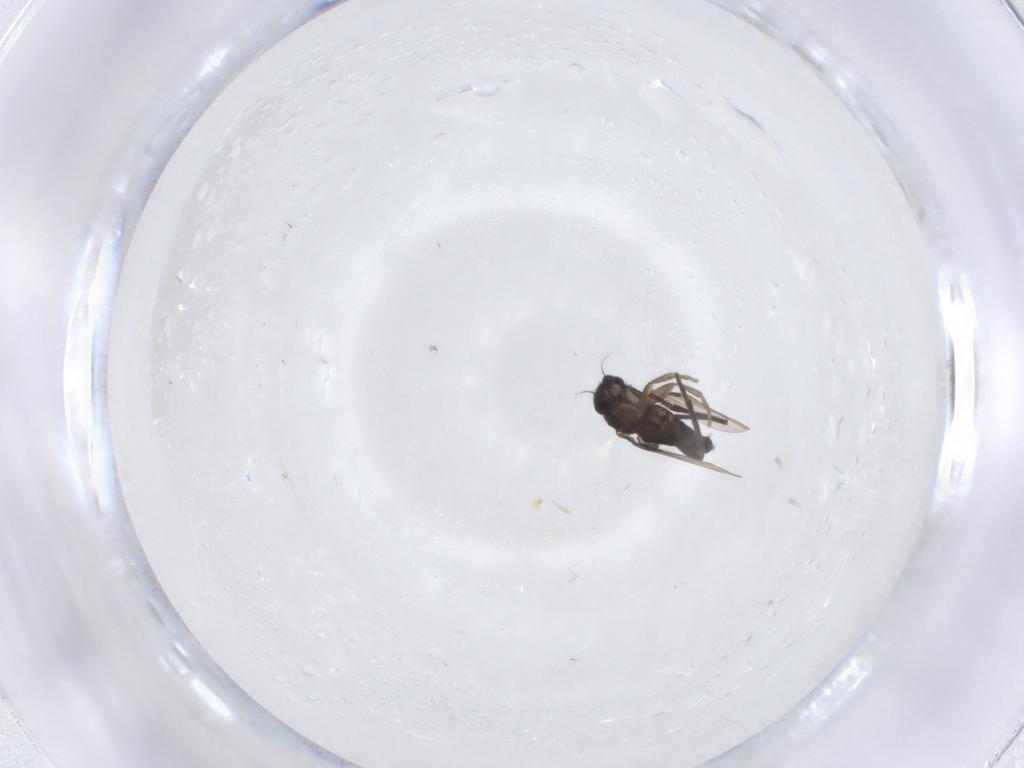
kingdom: Animalia
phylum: Arthropoda
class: Insecta
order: Diptera
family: Phoridae
